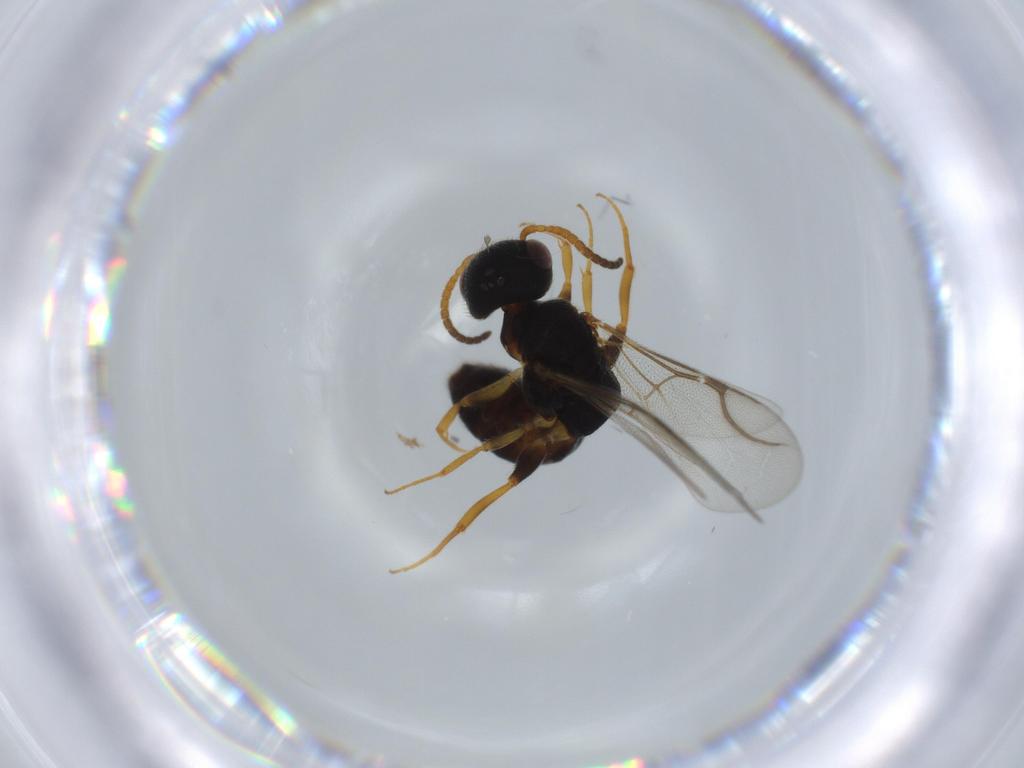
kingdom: Animalia
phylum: Arthropoda
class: Insecta
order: Hymenoptera
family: Bethylidae
